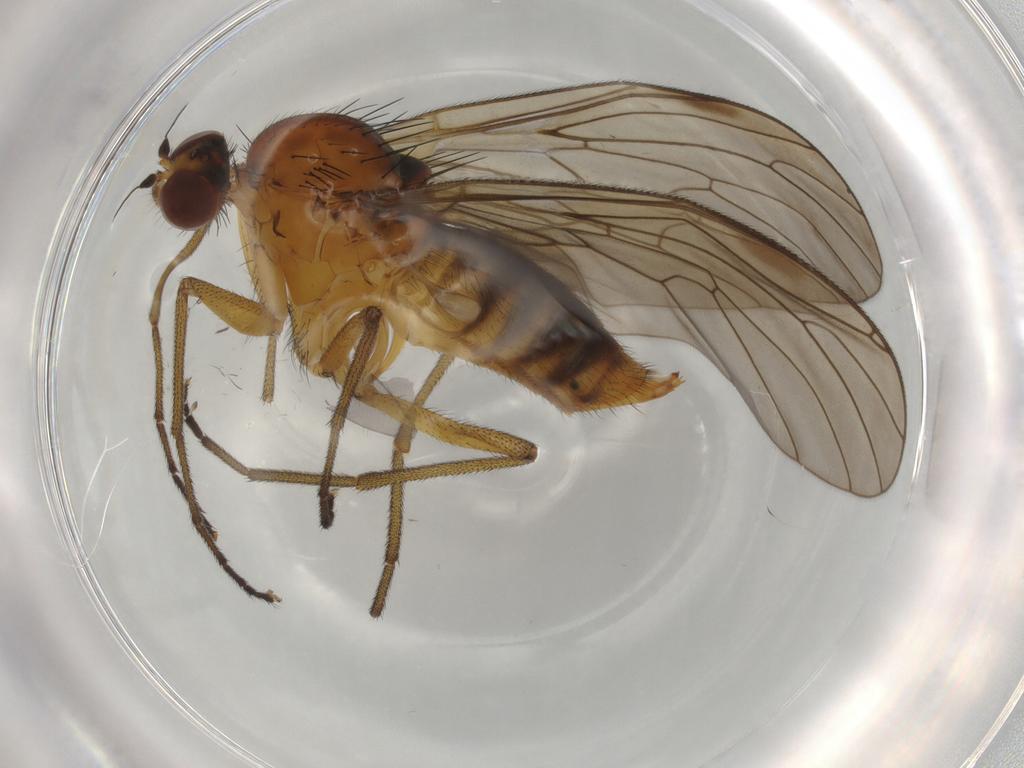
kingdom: Animalia
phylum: Arthropoda
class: Insecta
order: Diptera
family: Brachystomatidae
